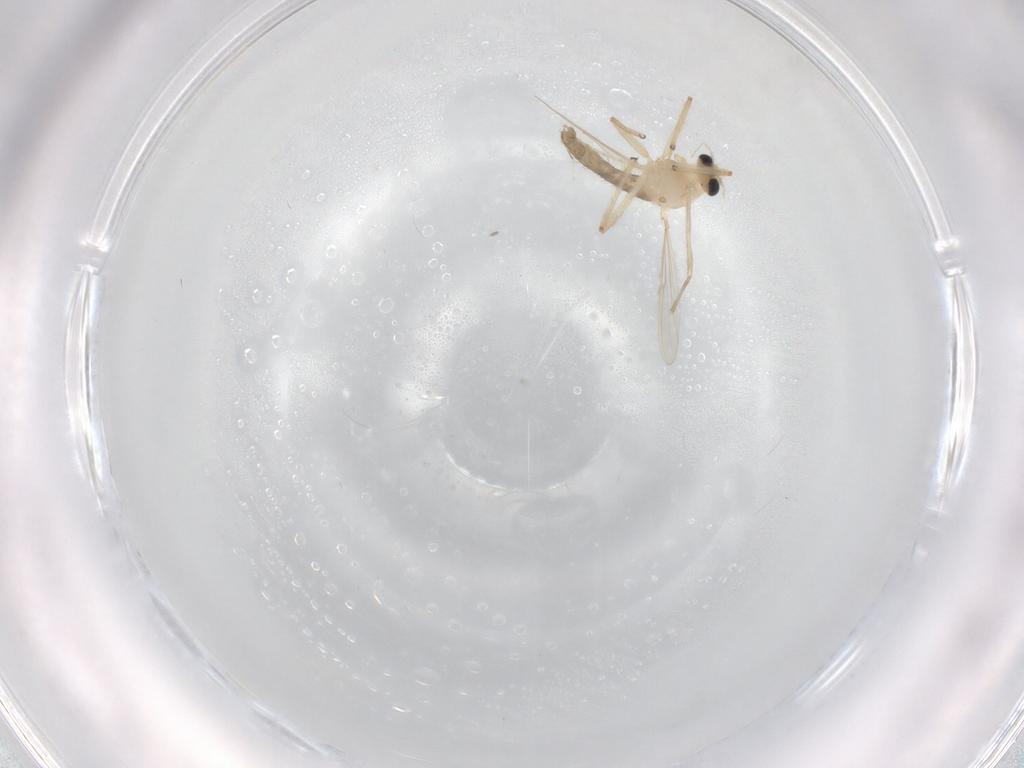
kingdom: Animalia
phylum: Arthropoda
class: Insecta
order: Diptera
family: Chironomidae
